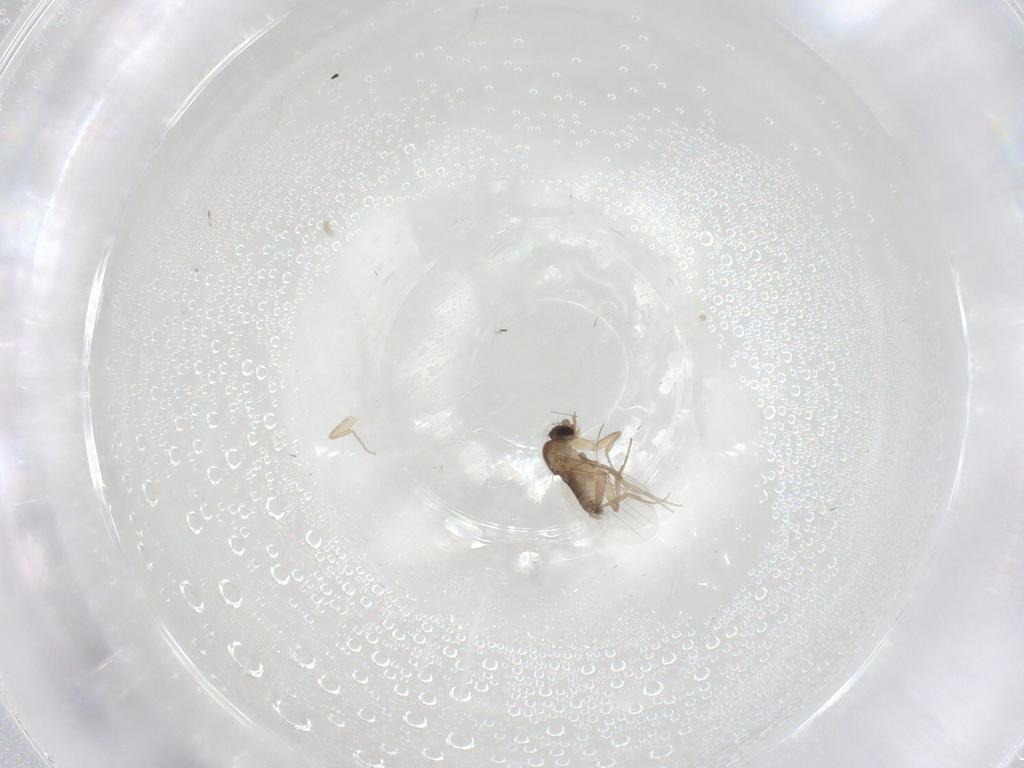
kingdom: Animalia
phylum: Arthropoda
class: Insecta
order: Diptera
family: Phoridae
